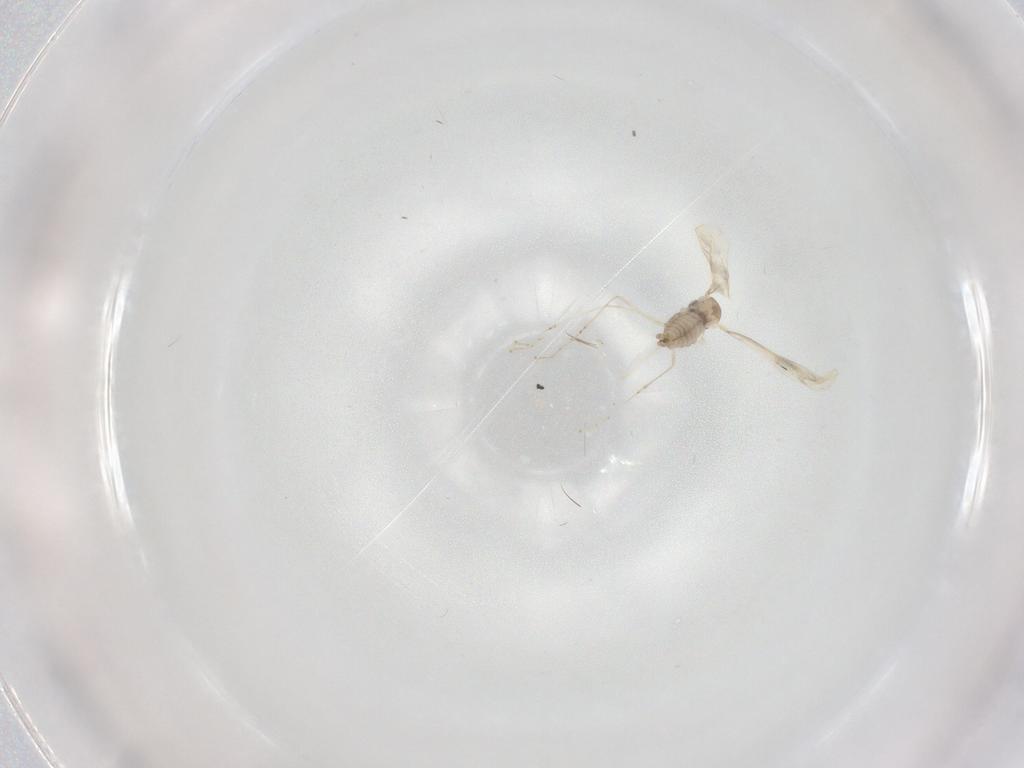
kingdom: Animalia
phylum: Arthropoda
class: Insecta
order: Diptera
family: Cecidomyiidae
